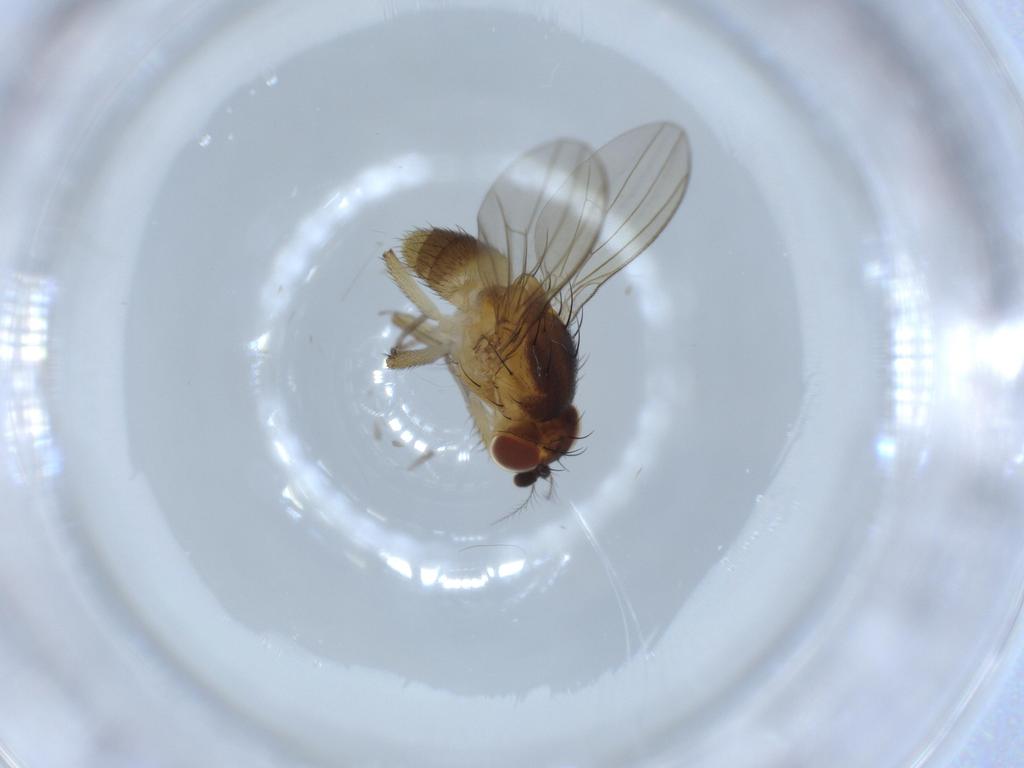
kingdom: Animalia
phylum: Arthropoda
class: Insecta
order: Diptera
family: Lauxaniidae
